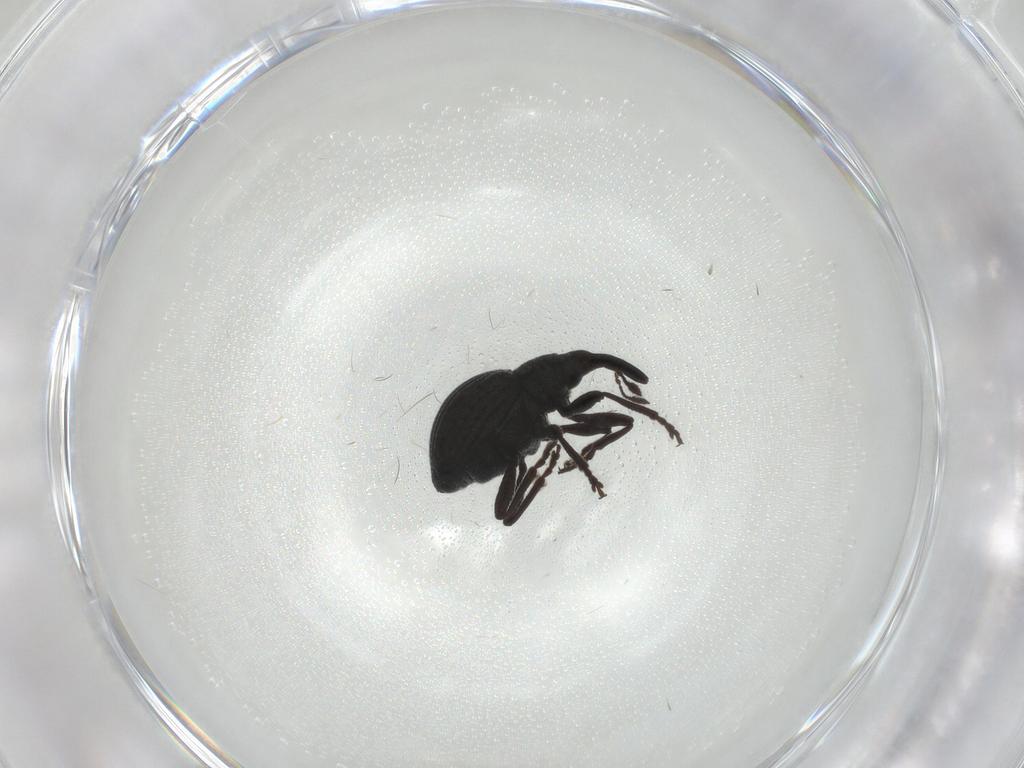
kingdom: Animalia
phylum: Arthropoda
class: Insecta
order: Coleoptera
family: Brentidae
